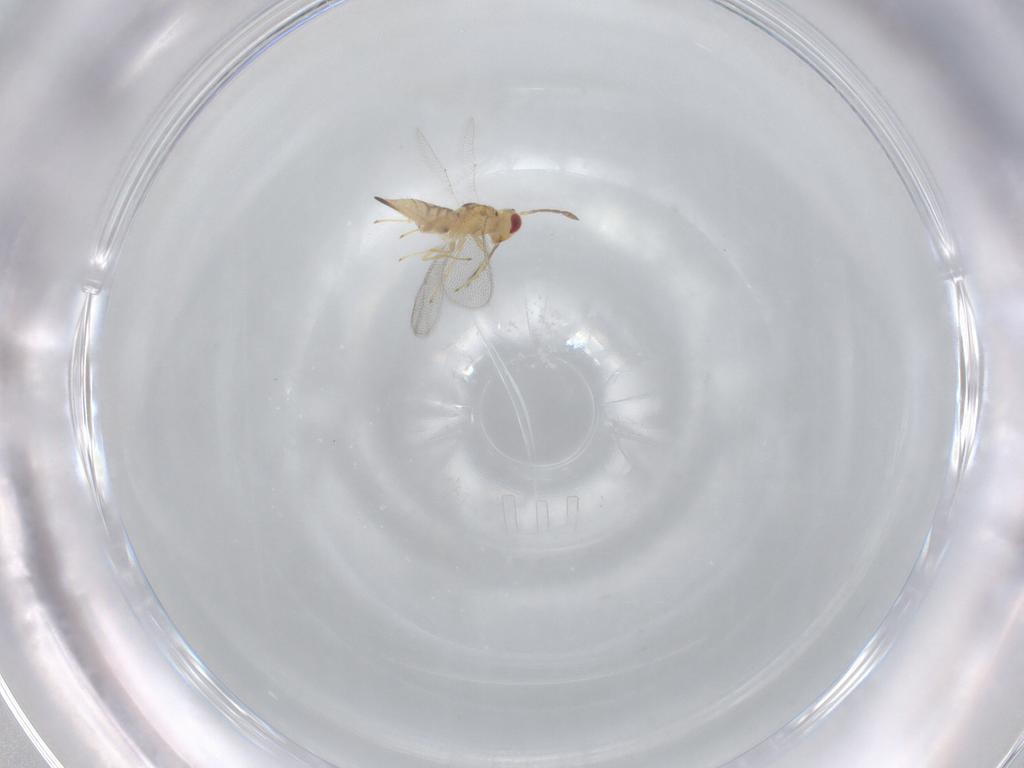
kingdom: Animalia
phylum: Arthropoda
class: Insecta
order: Hymenoptera
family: Eulophidae
